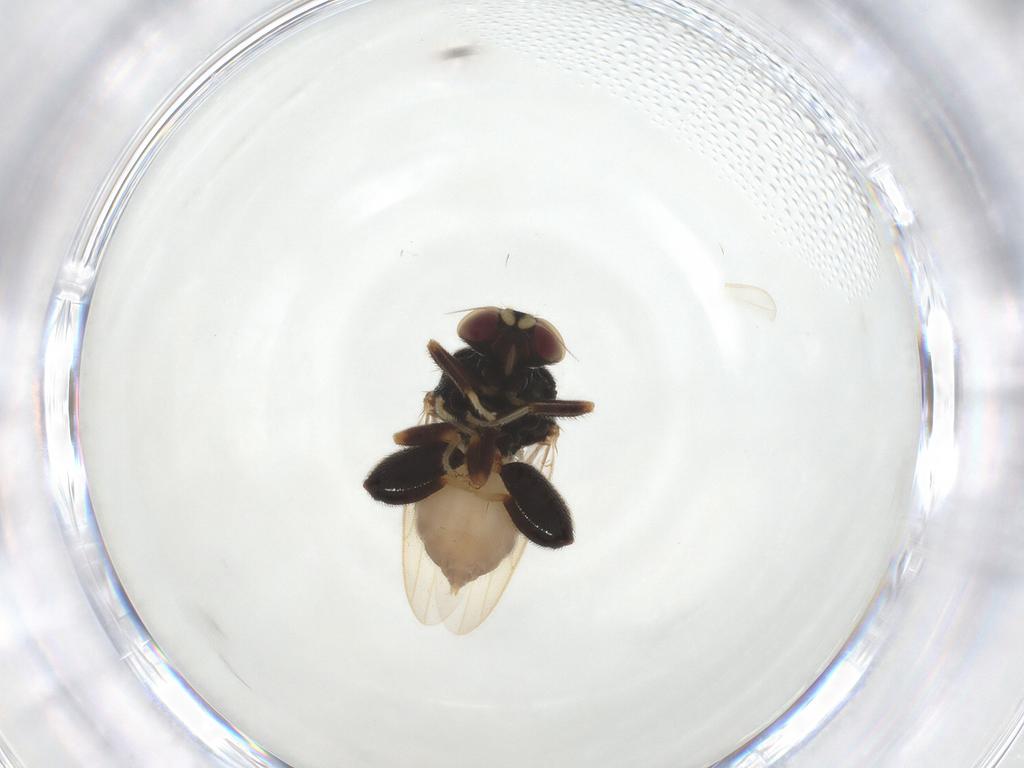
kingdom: Animalia
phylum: Arthropoda
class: Insecta
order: Diptera
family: Chloropidae
